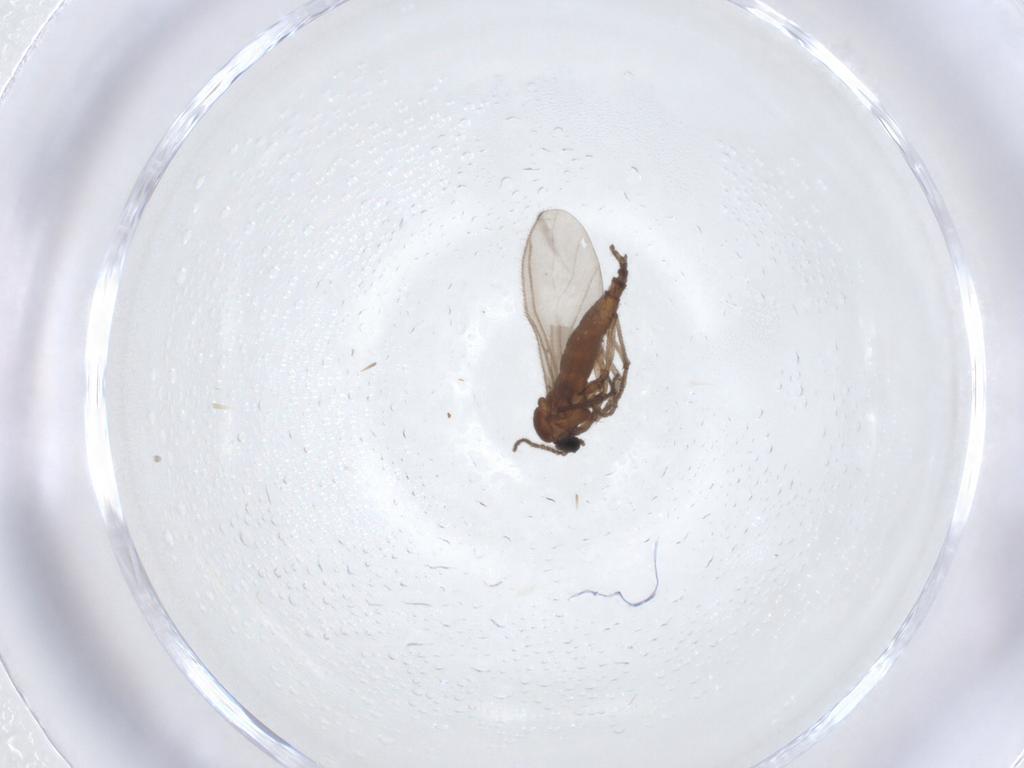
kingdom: Animalia
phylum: Arthropoda
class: Insecta
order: Diptera
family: Sciaridae
